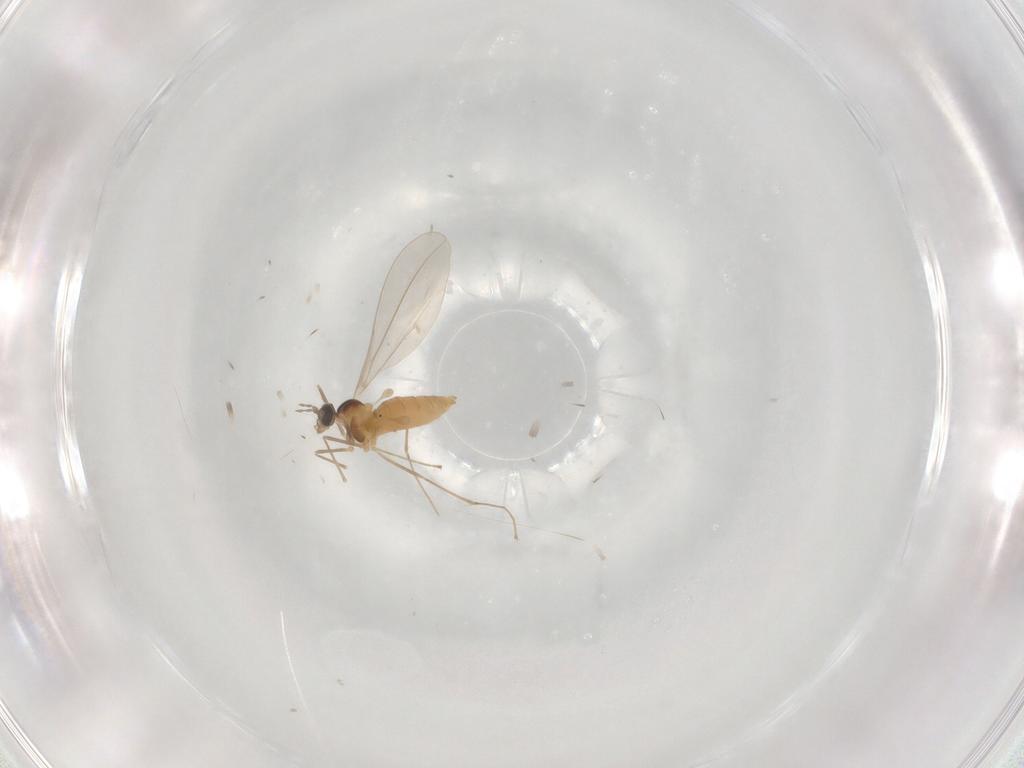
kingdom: Animalia
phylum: Arthropoda
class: Insecta
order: Diptera
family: Cecidomyiidae
